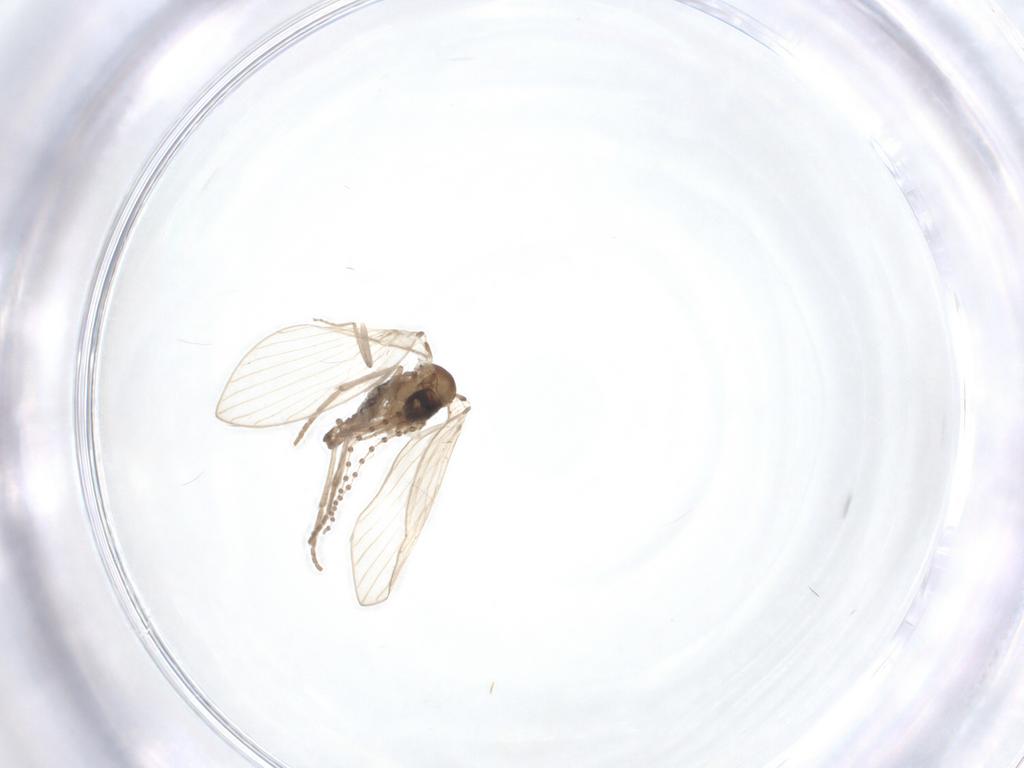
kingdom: Animalia
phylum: Arthropoda
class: Insecta
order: Diptera
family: Psychodidae
